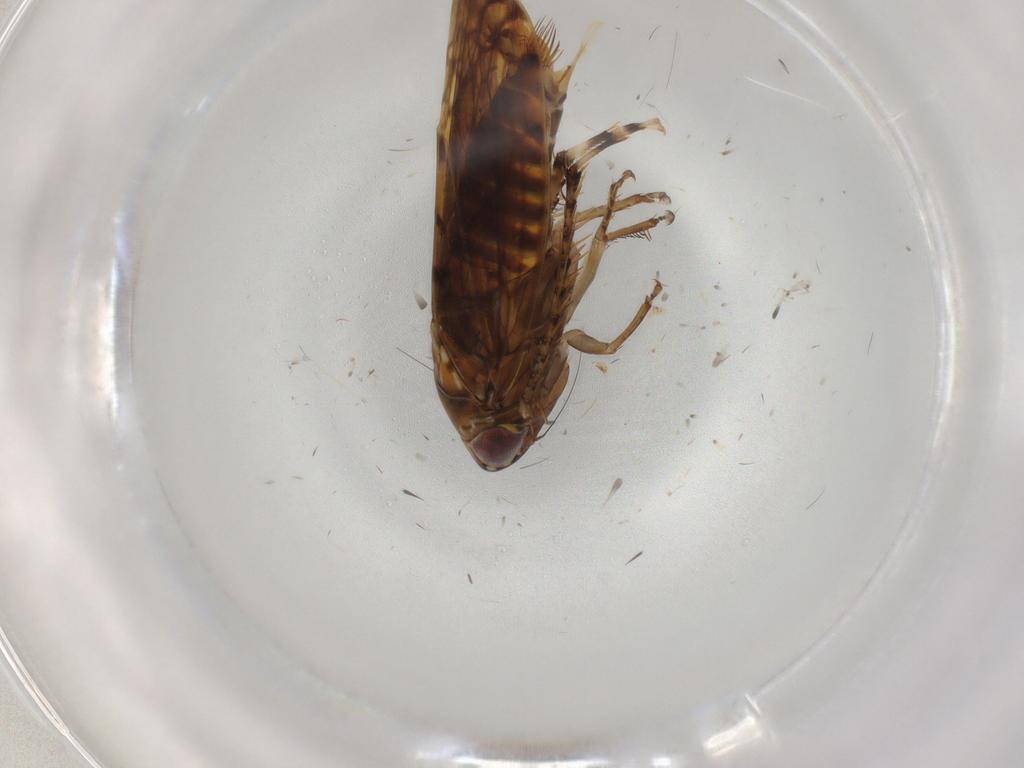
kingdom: Animalia
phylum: Arthropoda
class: Insecta
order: Hemiptera
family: Cicadellidae
